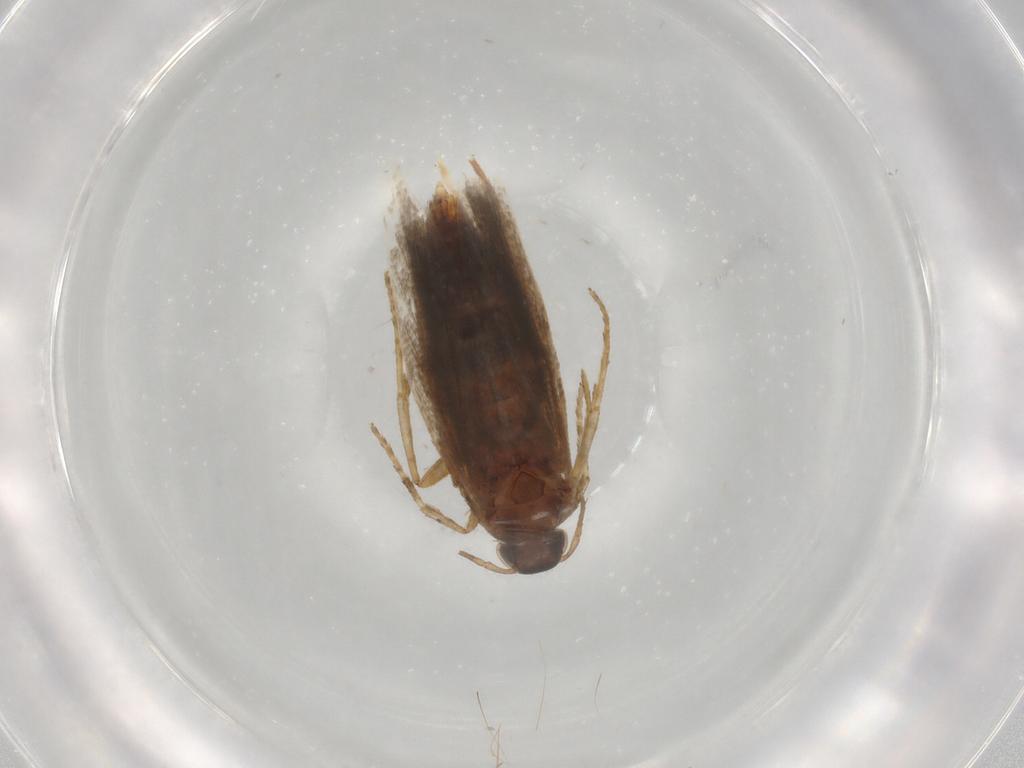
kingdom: Animalia
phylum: Arthropoda
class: Insecta
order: Lepidoptera
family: Gelechiidae
